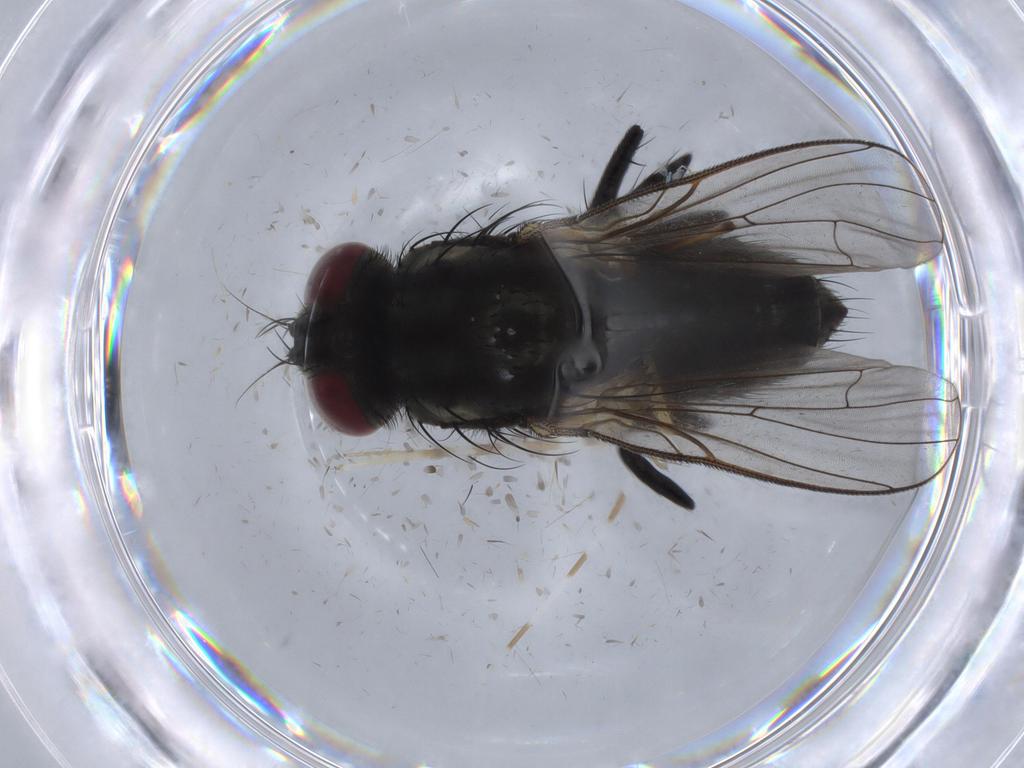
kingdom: Animalia
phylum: Arthropoda
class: Insecta
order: Diptera
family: Muscidae
